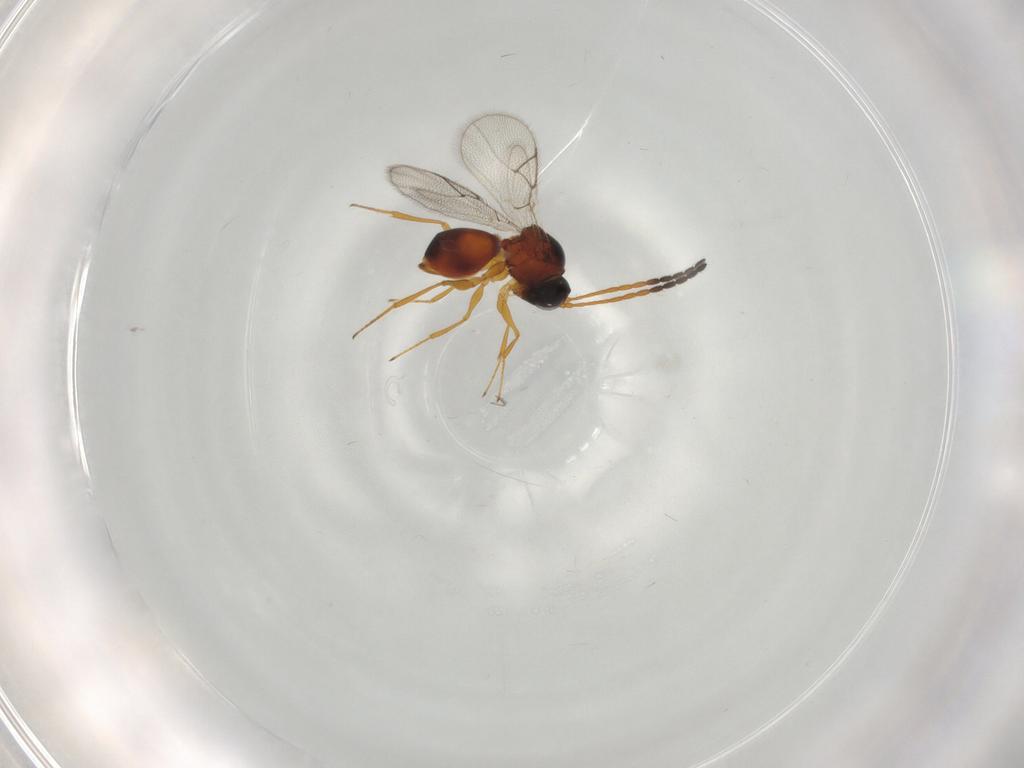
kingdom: Animalia
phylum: Arthropoda
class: Insecta
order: Hymenoptera
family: Figitidae
